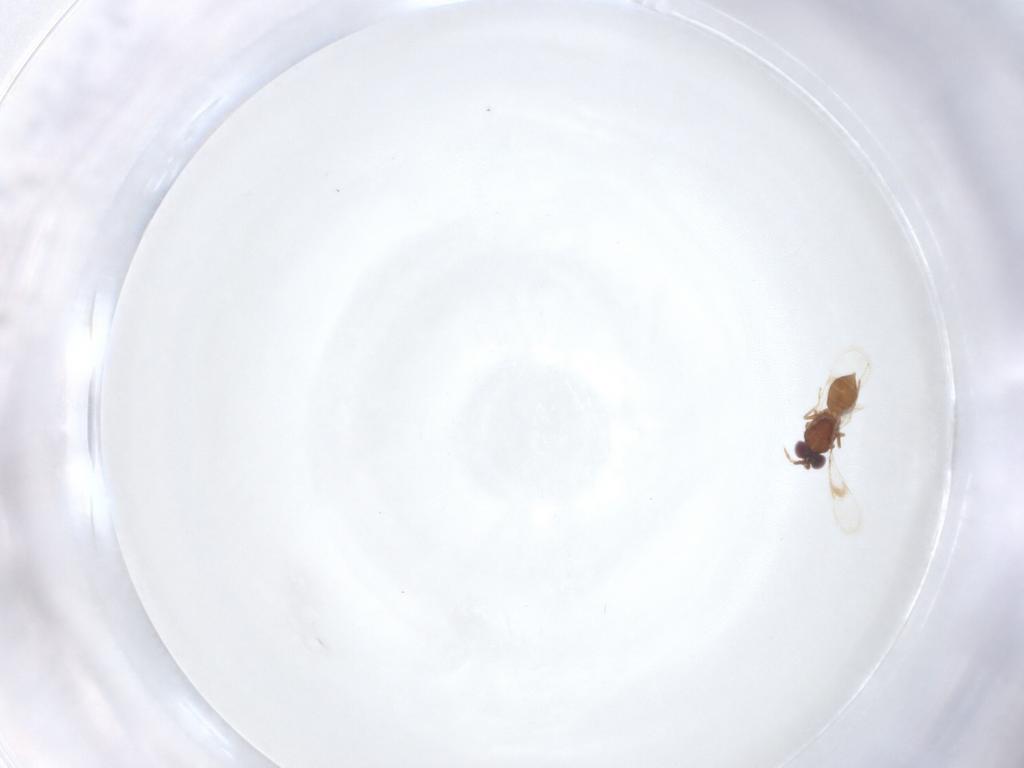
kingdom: Animalia
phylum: Arthropoda
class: Insecta
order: Hymenoptera
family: Eulophidae
